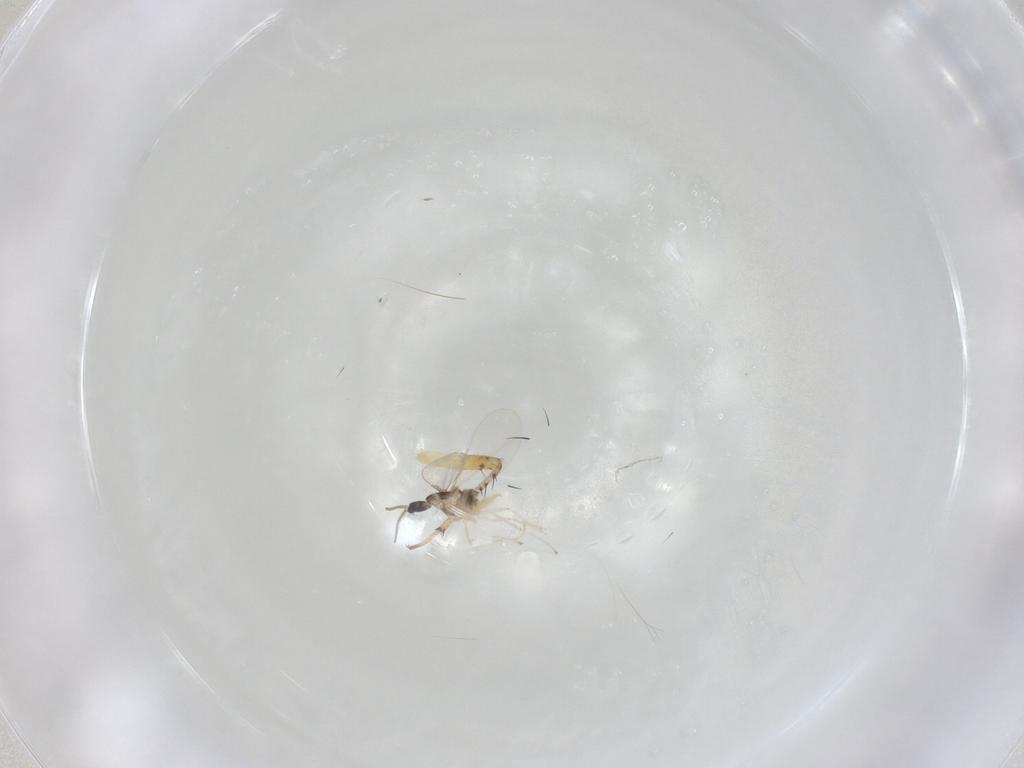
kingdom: Animalia
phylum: Arthropoda
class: Insecta
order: Diptera
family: Cecidomyiidae
